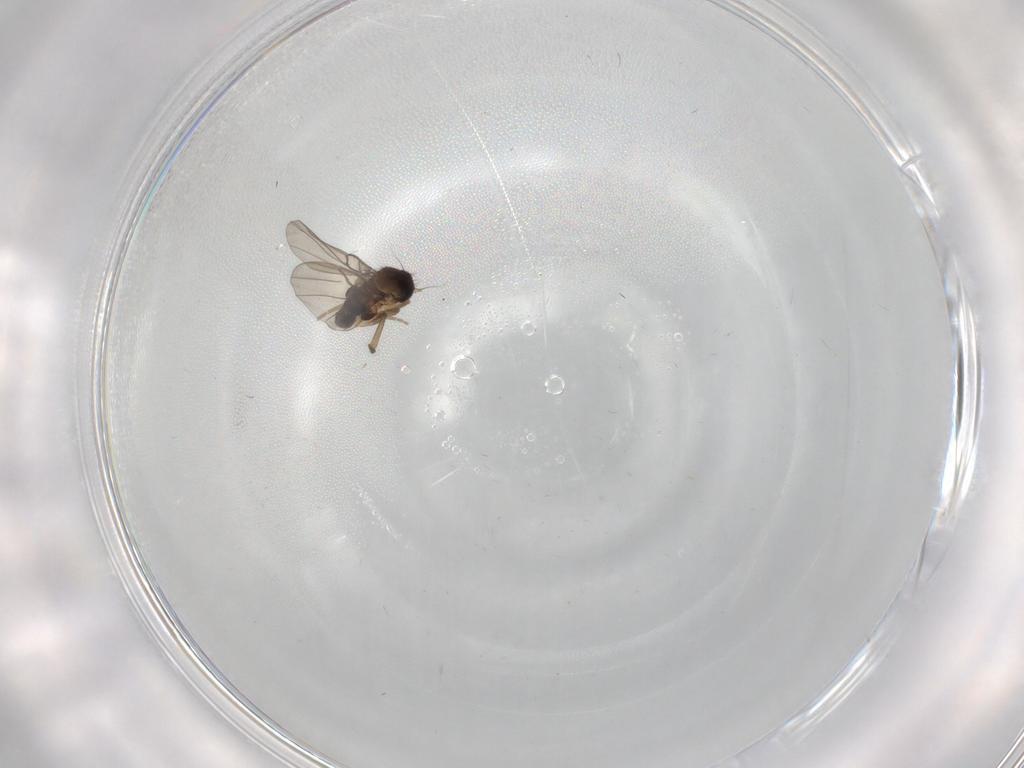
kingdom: Animalia
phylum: Arthropoda
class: Insecta
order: Diptera
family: Phoridae
